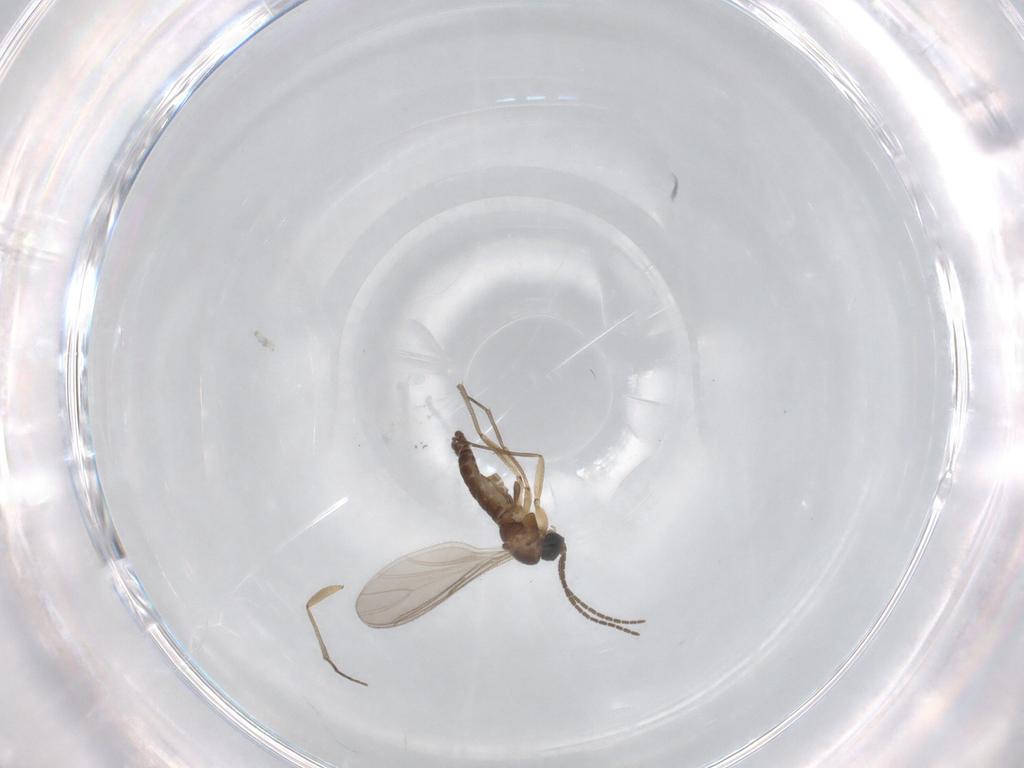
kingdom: Animalia
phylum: Arthropoda
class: Insecta
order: Diptera
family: Sciaridae
